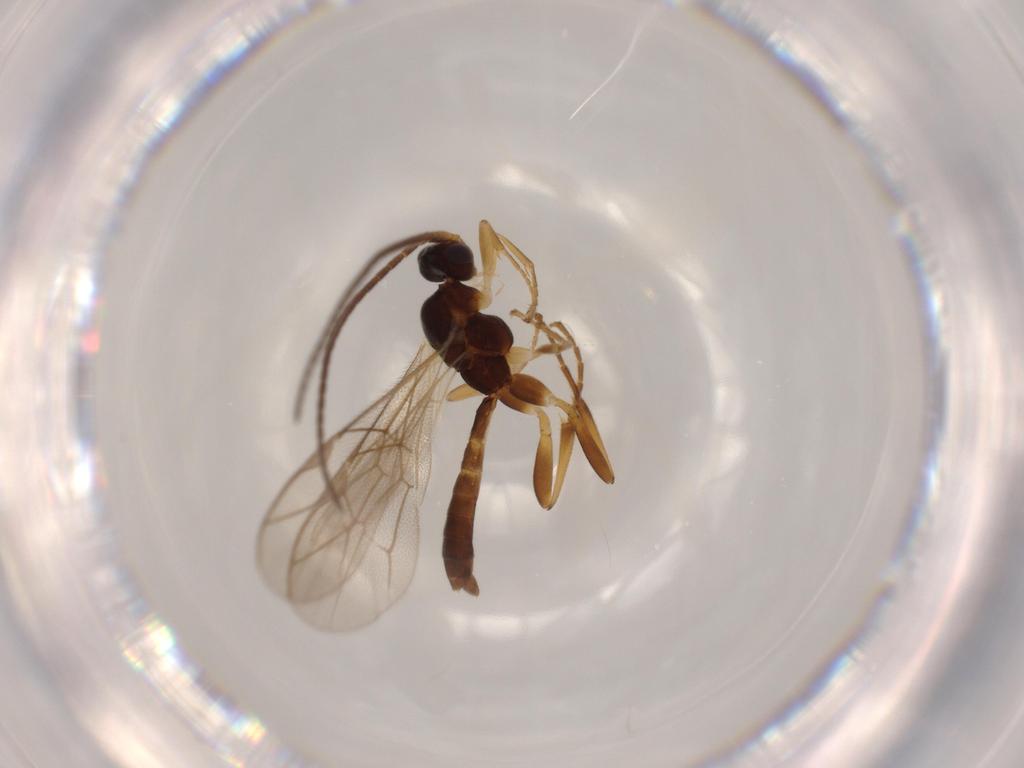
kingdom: Animalia
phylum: Arthropoda
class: Insecta
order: Hymenoptera
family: Ichneumonidae
